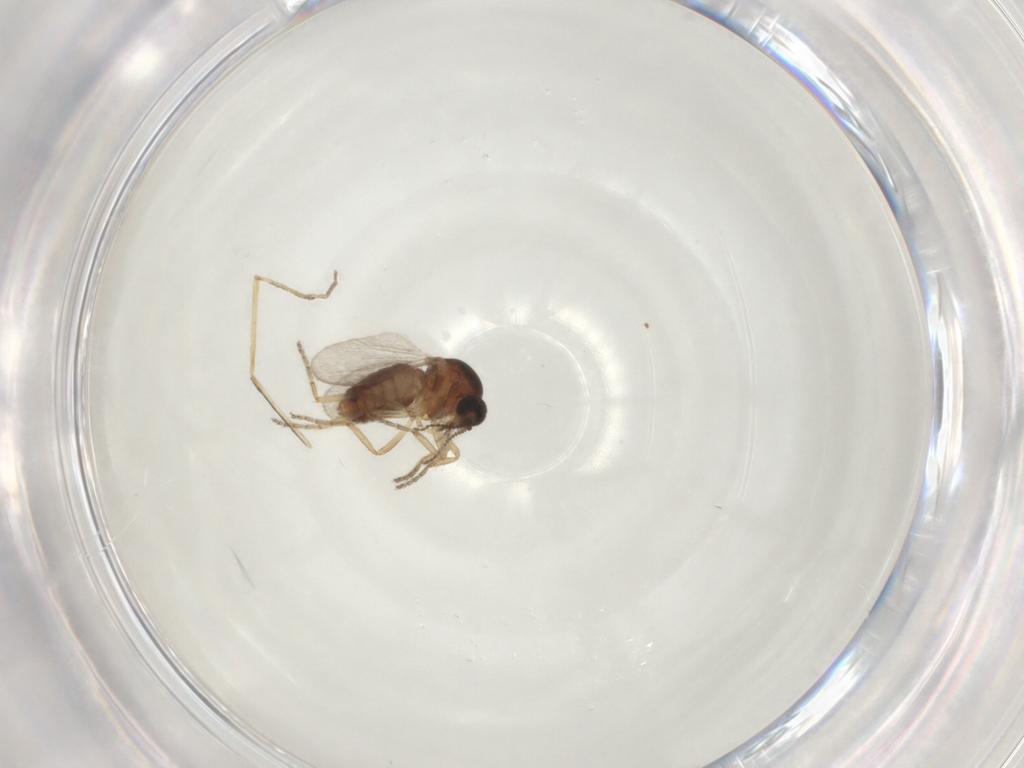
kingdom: Animalia
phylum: Arthropoda
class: Insecta
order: Diptera
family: Ceratopogonidae
